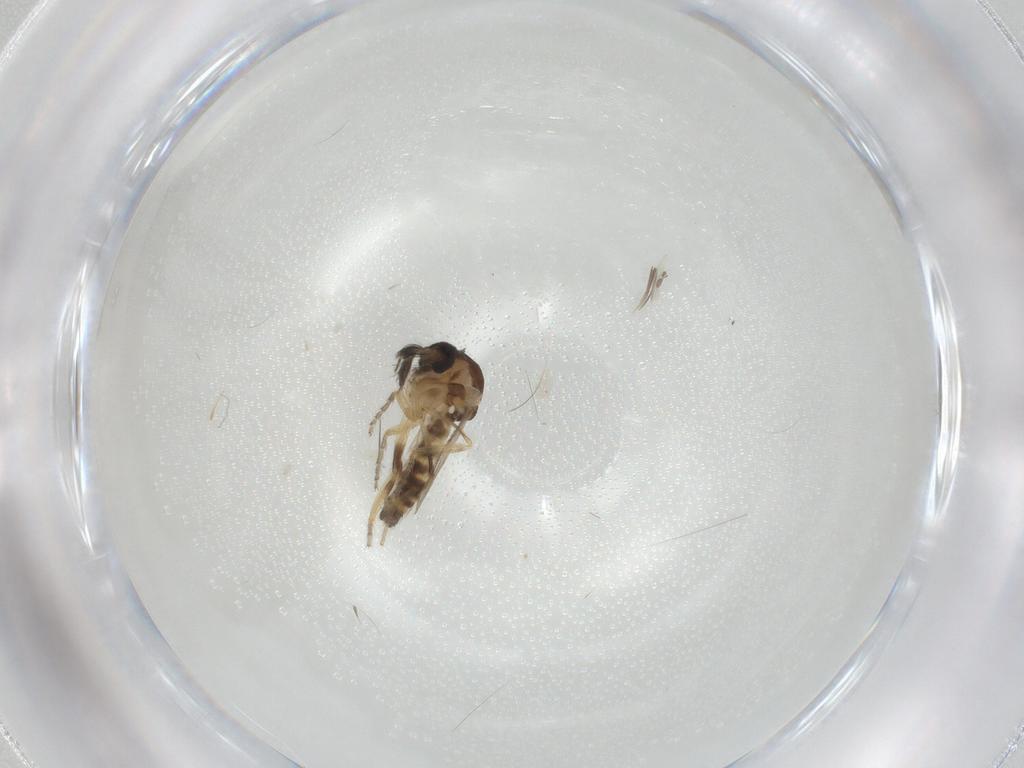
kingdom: Animalia
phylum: Arthropoda
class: Insecta
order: Diptera
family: Ceratopogonidae
